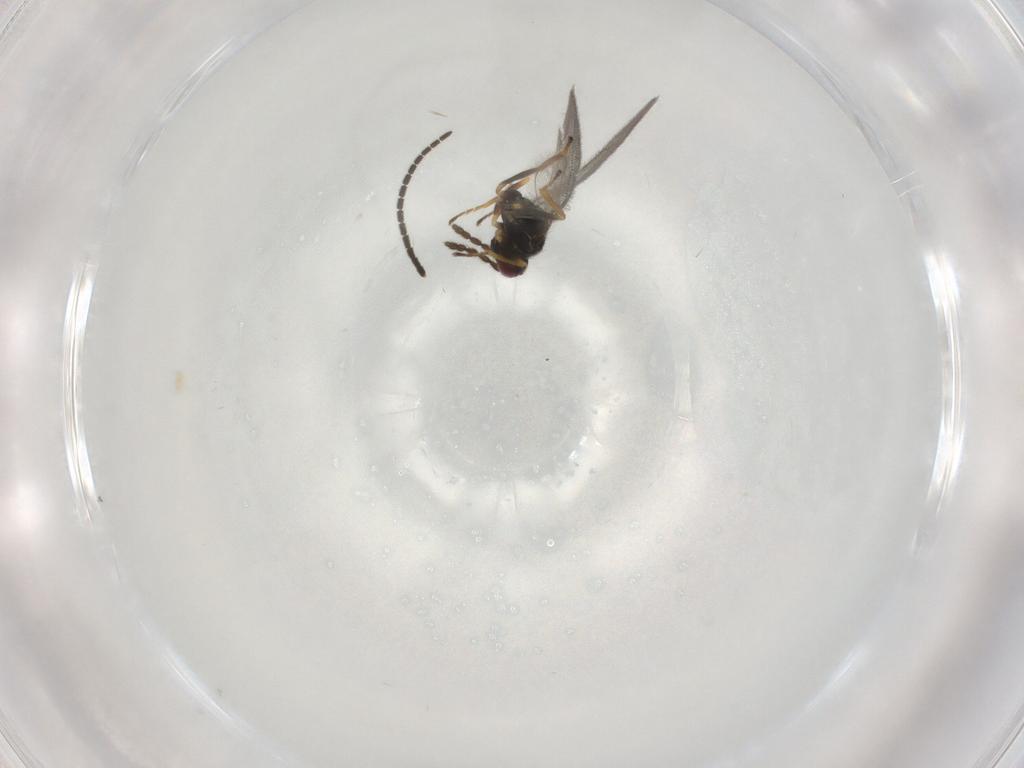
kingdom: Animalia
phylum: Arthropoda
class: Insecta
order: Hymenoptera
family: Eulophidae
